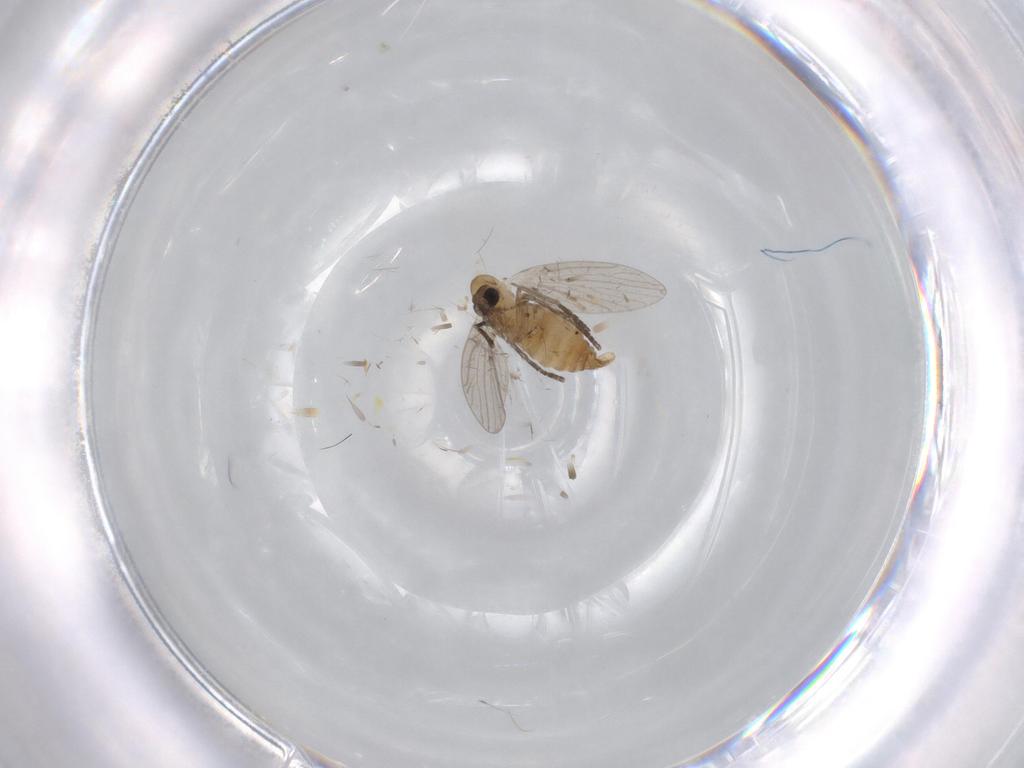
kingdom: Animalia
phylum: Arthropoda
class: Insecta
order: Diptera
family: Psychodidae
